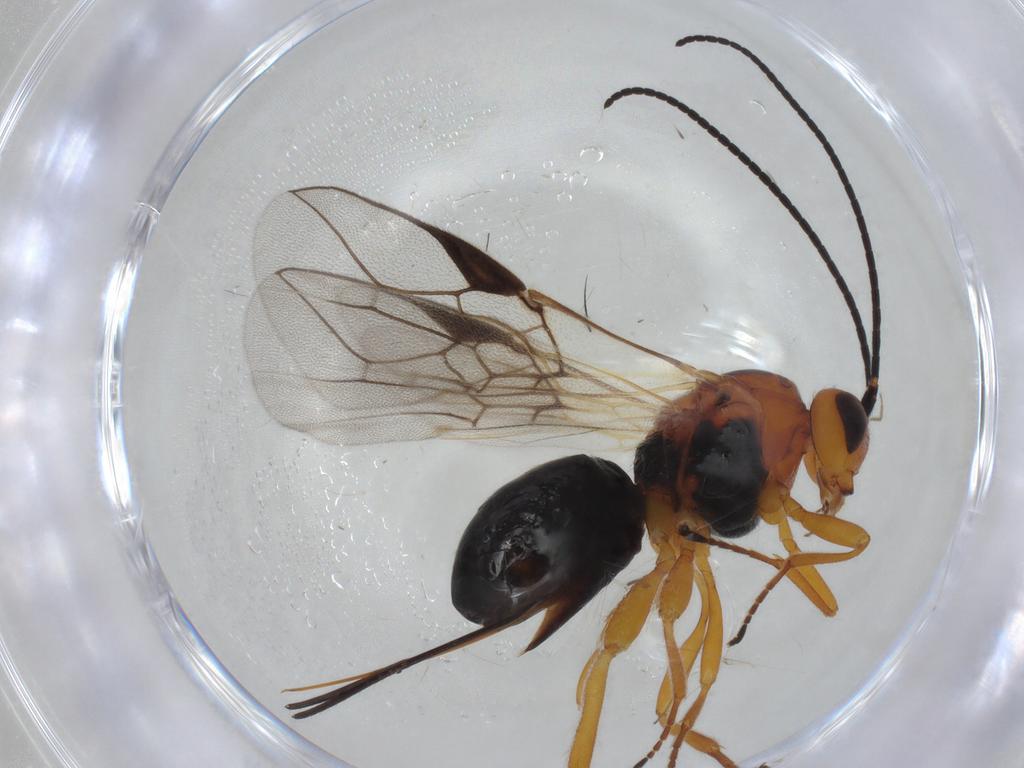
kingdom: Animalia
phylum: Arthropoda
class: Insecta
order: Hymenoptera
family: Braconidae
